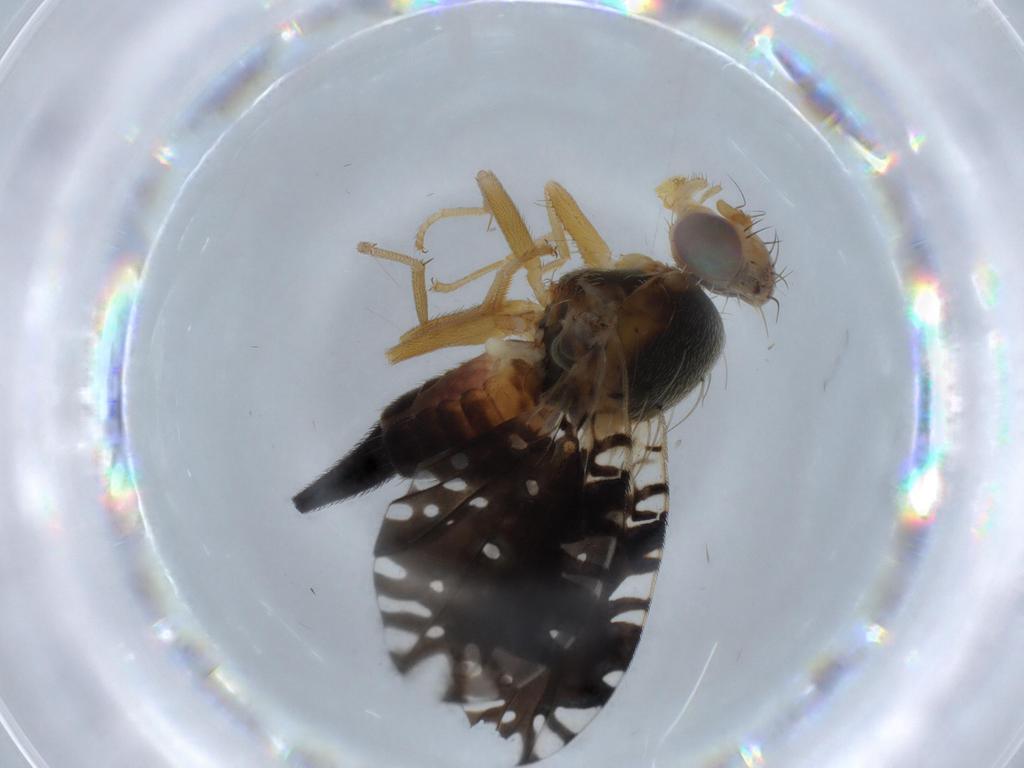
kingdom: Animalia
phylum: Arthropoda
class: Insecta
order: Diptera
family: Tephritidae
